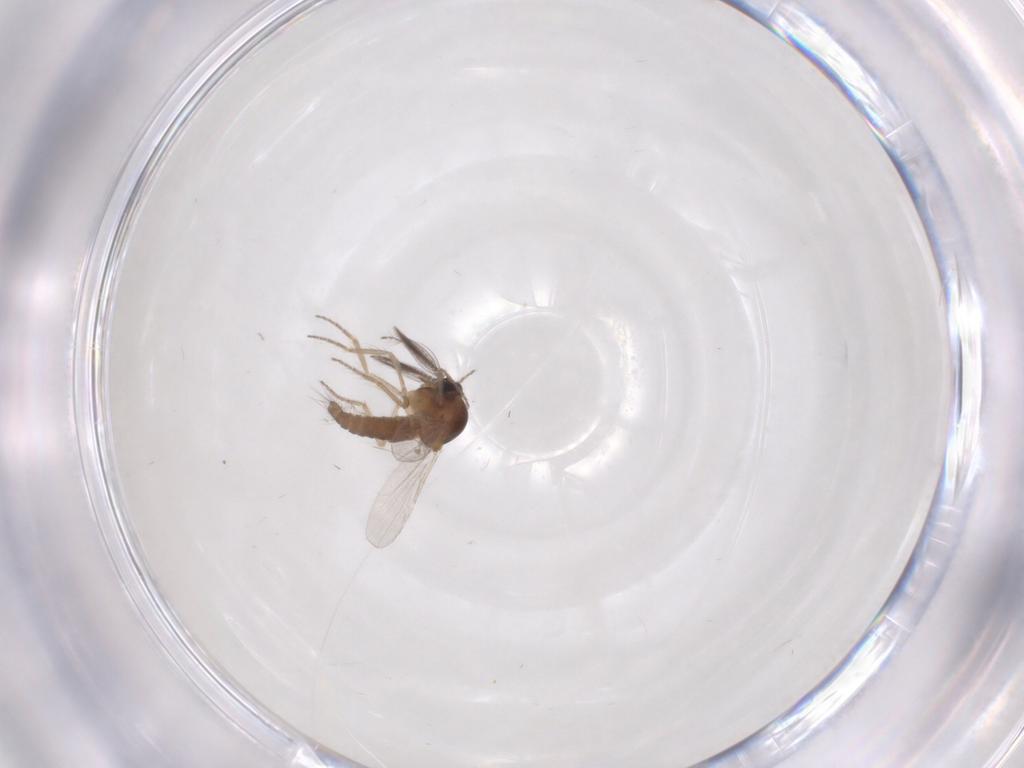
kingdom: Animalia
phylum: Arthropoda
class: Insecta
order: Diptera
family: Ceratopogonidae
